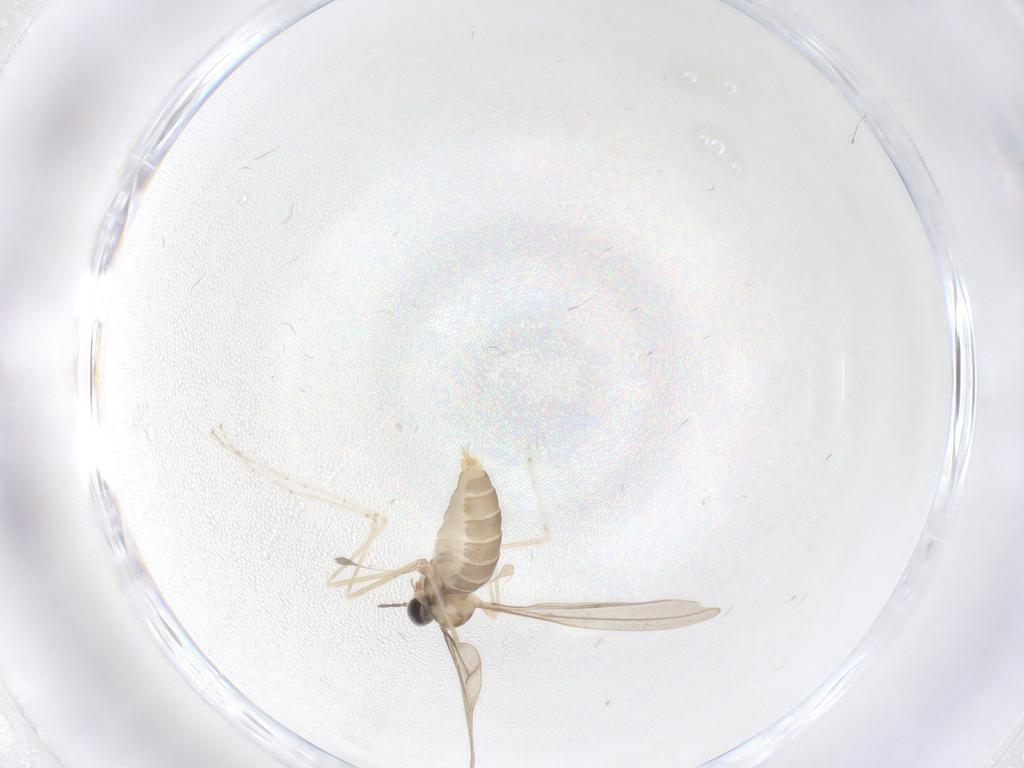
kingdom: Animalia
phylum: Arthropoda
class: Insecta
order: Diptera
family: Cecidomyiidae
